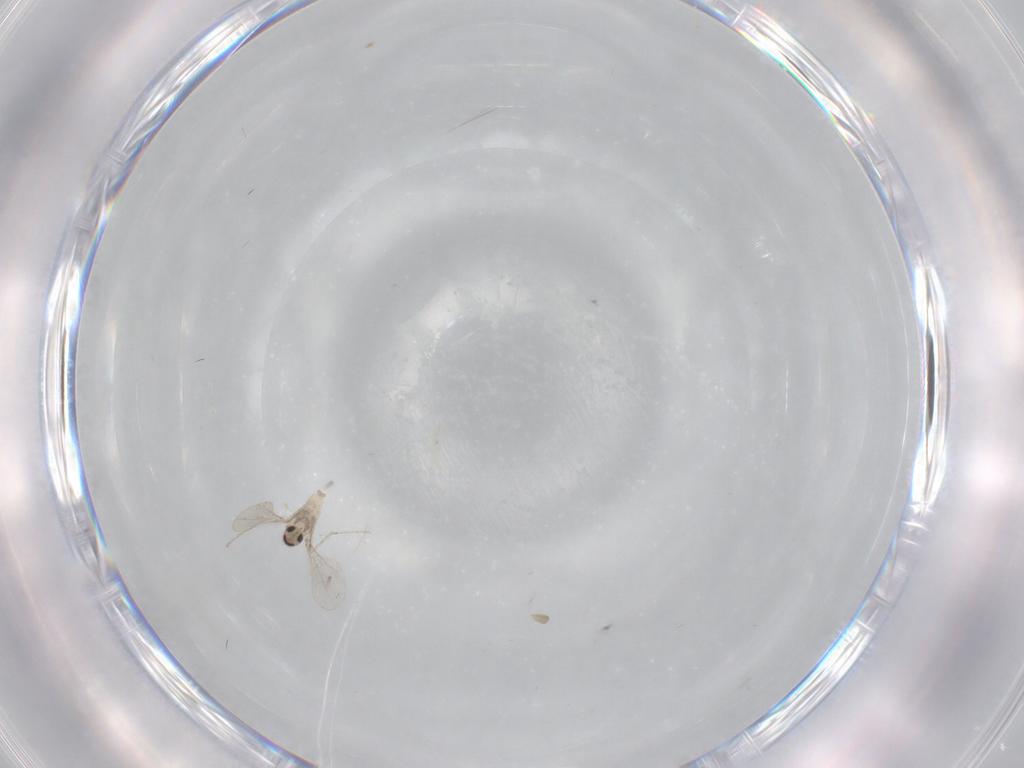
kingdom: Animalia
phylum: Arthropoda
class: Insecta
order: Diptera
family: Cecidomyiidae
